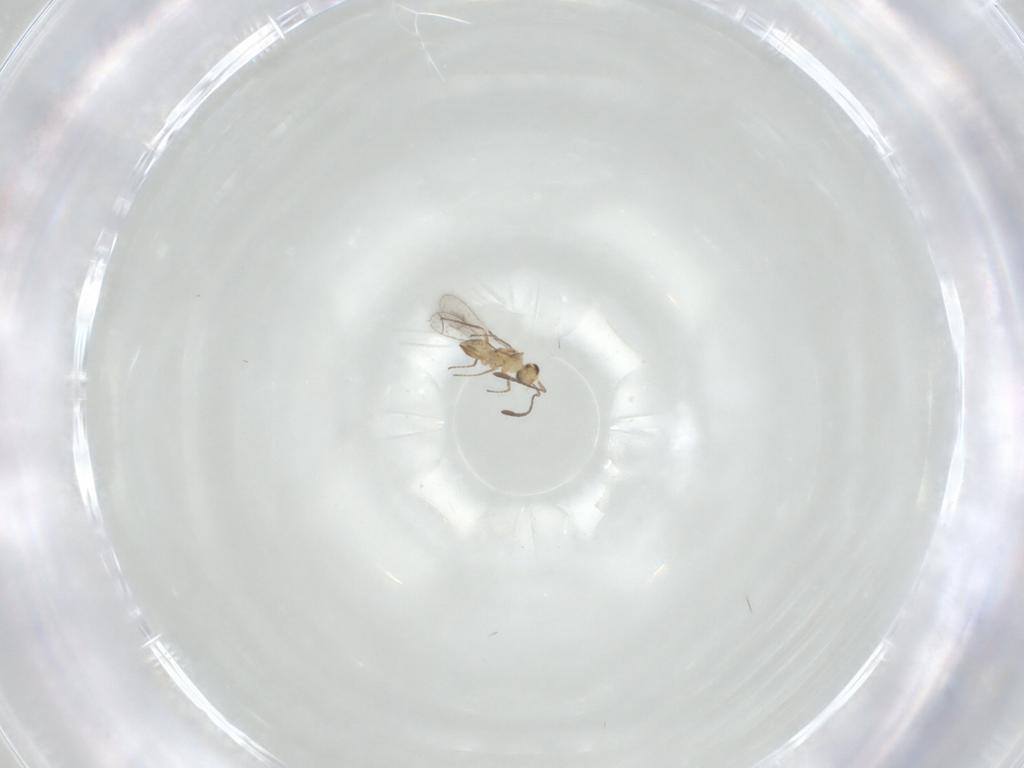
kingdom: Animalia
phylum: Arthropoda
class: Insecta
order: Hymenoptera
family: Mymaridae
